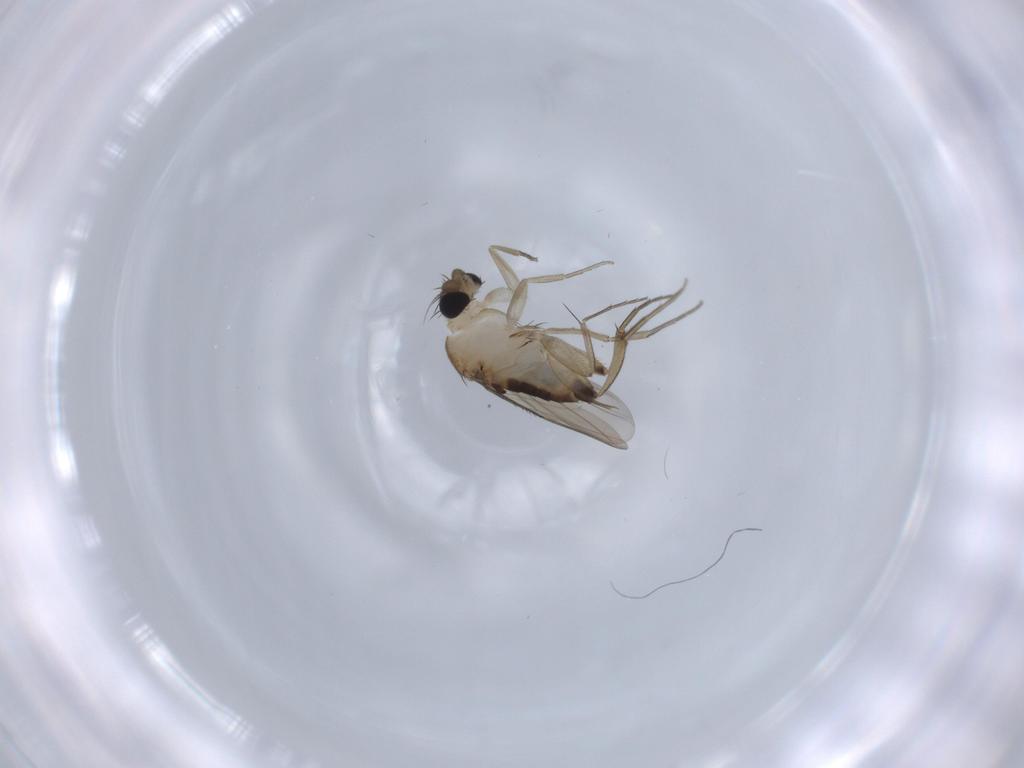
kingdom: Animalia
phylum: Arthropoda
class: Insecta
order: Diptera
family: Phoridae
